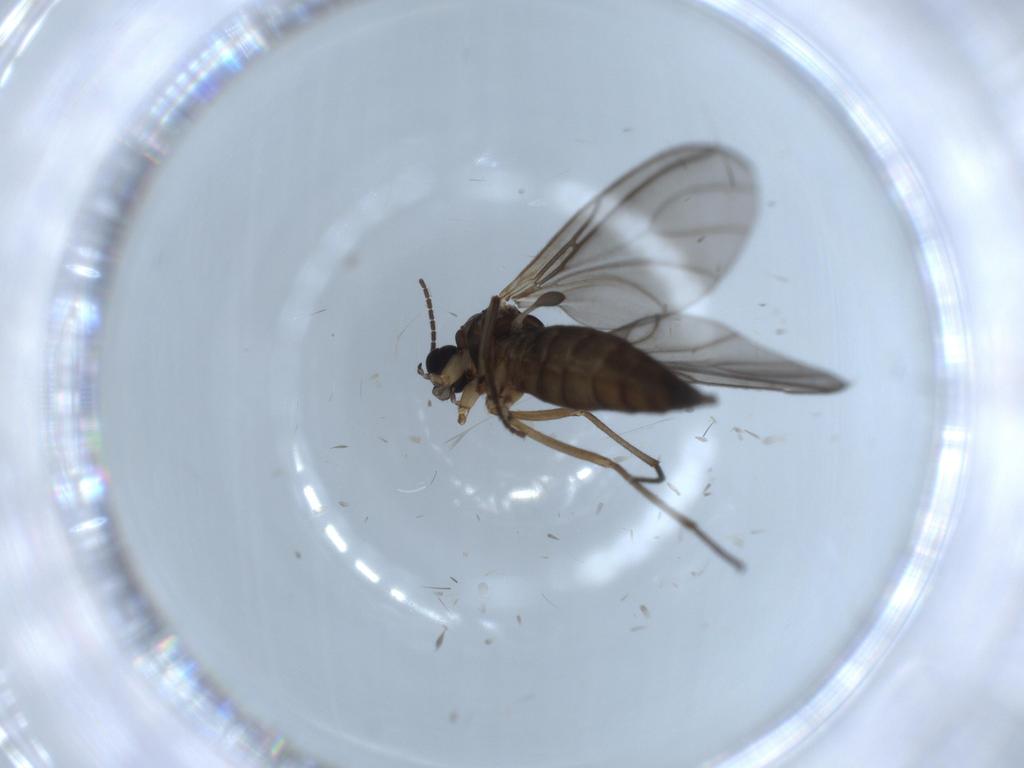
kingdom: Animalia
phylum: Arthropoda
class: Insecta
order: Diptera
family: Sciaridae
